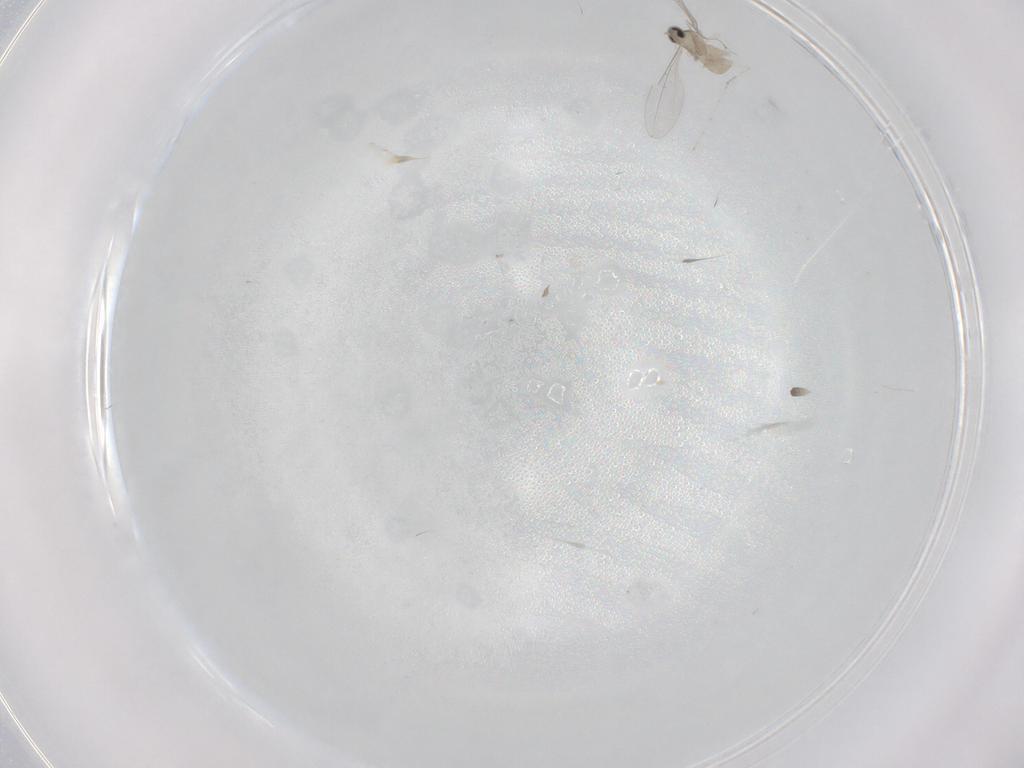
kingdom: Animalia
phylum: Arthropoda
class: Insecta
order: Diptera
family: Cecidomyiidae
